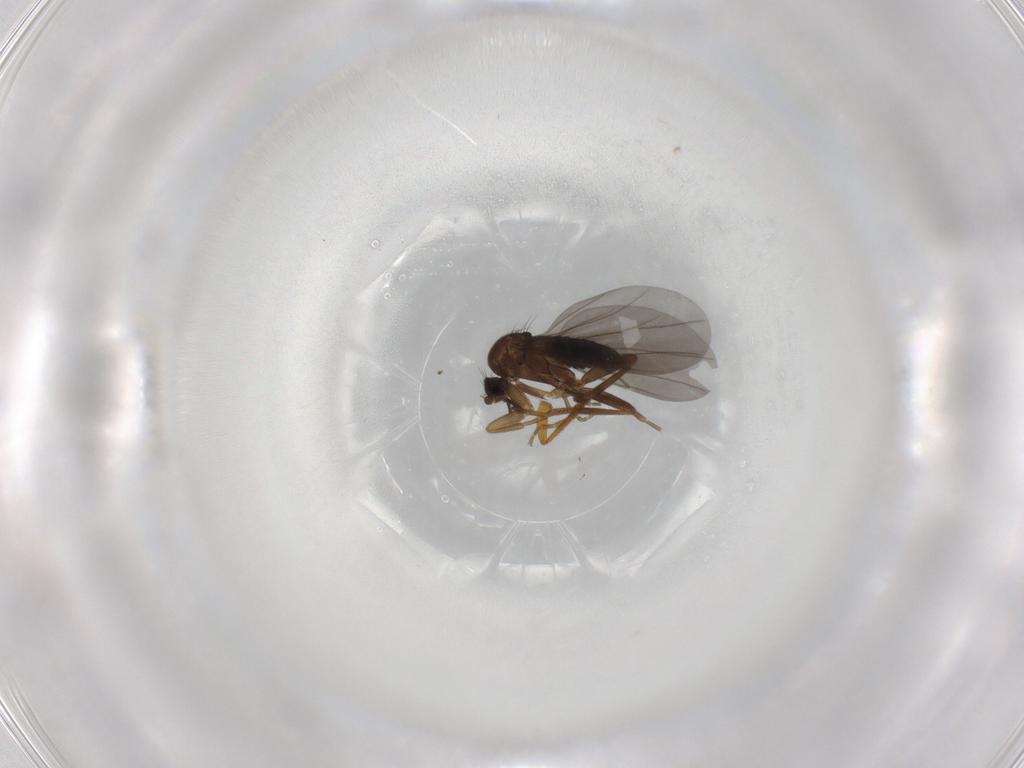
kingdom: Animalia
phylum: Arthropoda
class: Insecta
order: Diptera
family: Sciaridae
